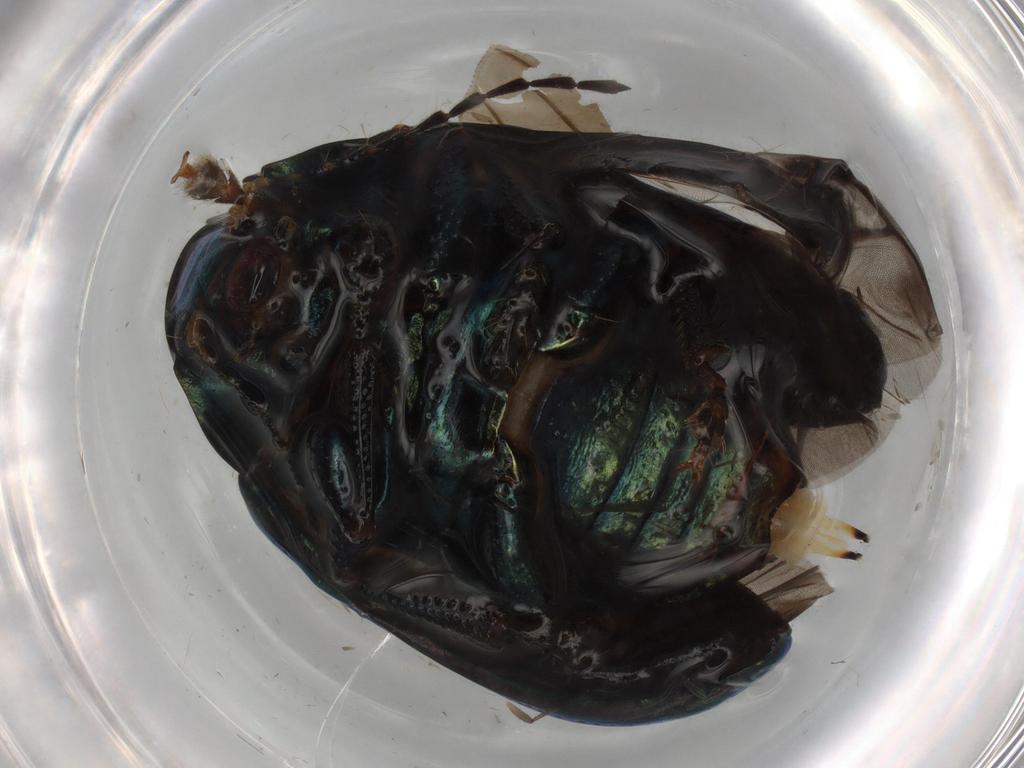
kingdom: Animalia
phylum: Arthropoda
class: Insecta
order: Coleoptera
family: Chrysomelidae
